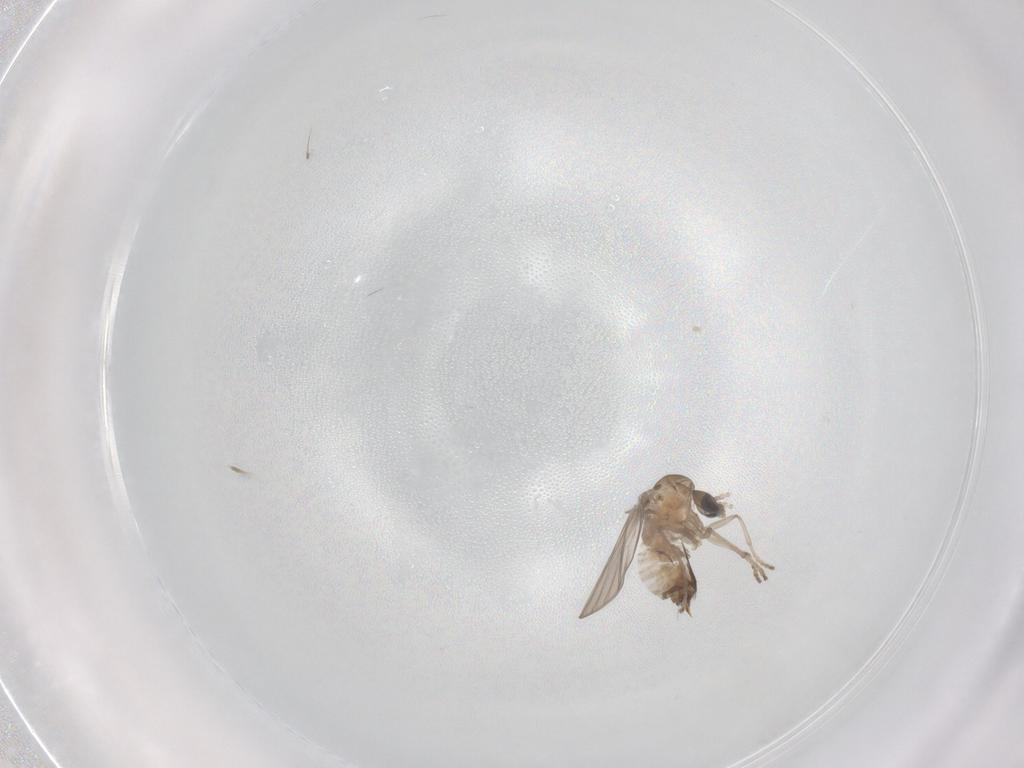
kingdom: Animalia
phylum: Arthropoda
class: Insecta
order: Diptera
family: Psychodidae
